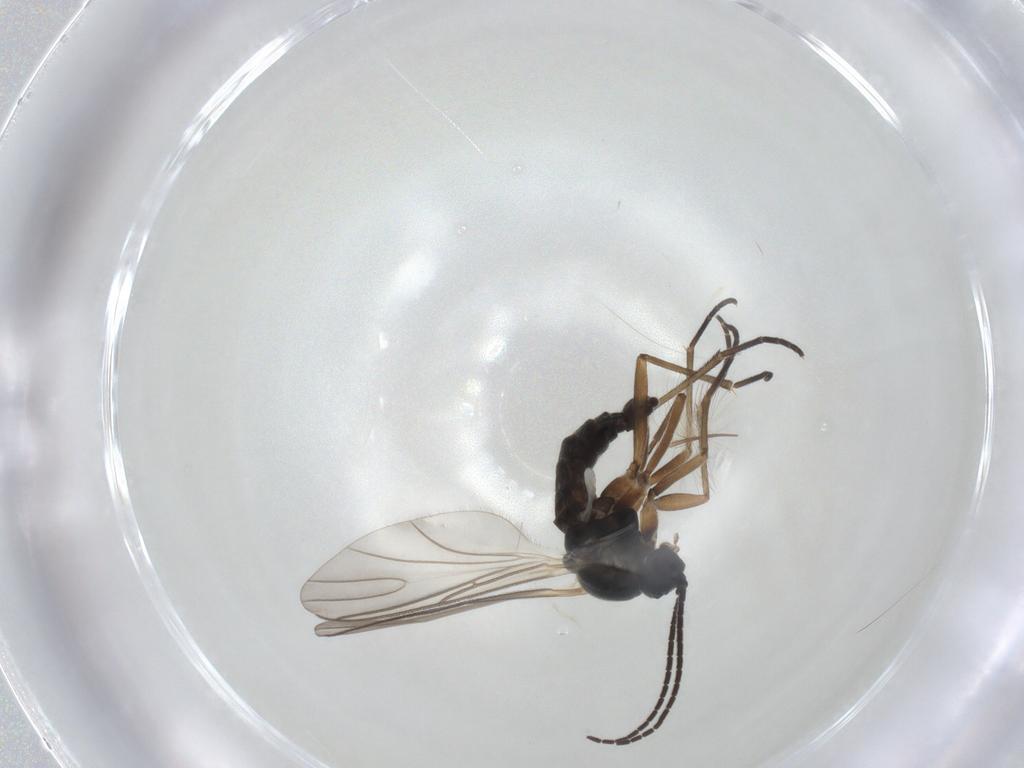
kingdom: Animalia
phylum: Arthropoda
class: Insecta
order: Diptera
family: Sciaridae
